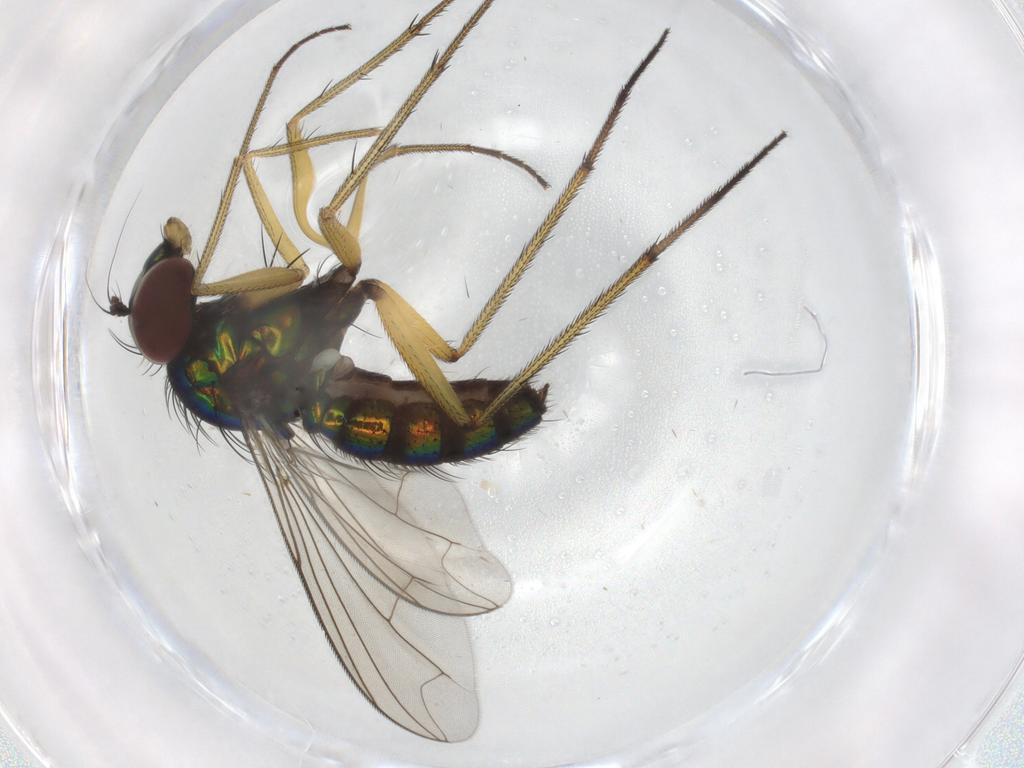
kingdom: Animalia
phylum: Arthropoda
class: Insecta
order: Diptera
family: Dolichopodidae
